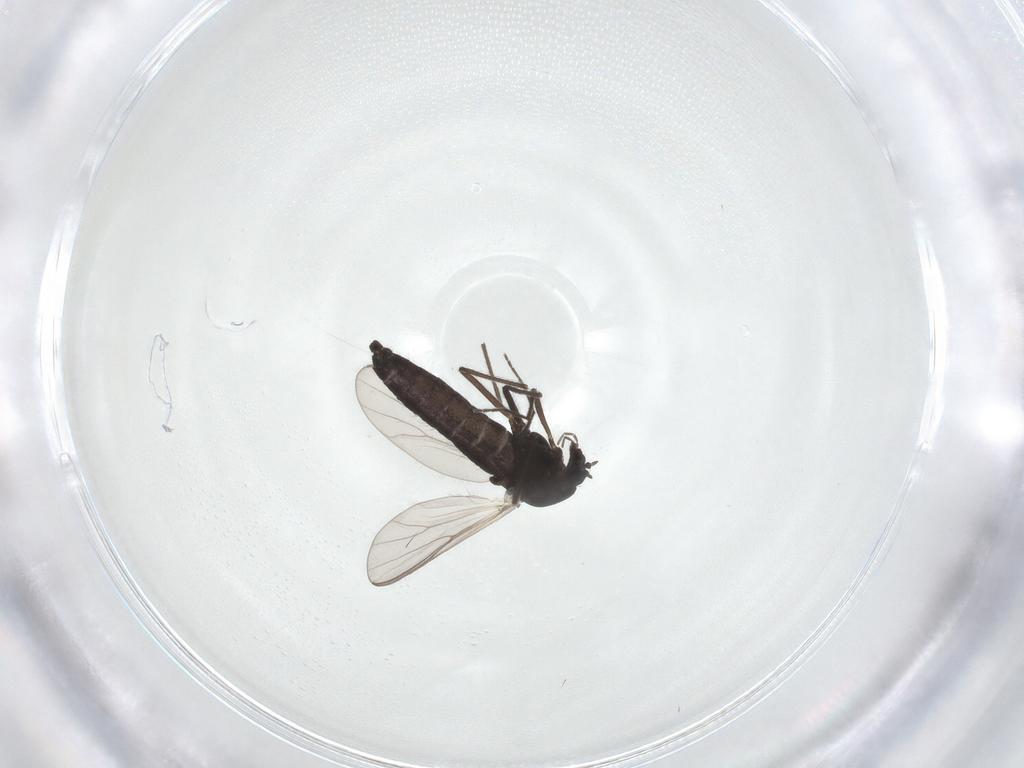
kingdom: Animalia
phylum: Arthropoda
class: Insecta
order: Diptera
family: Chironomidae
